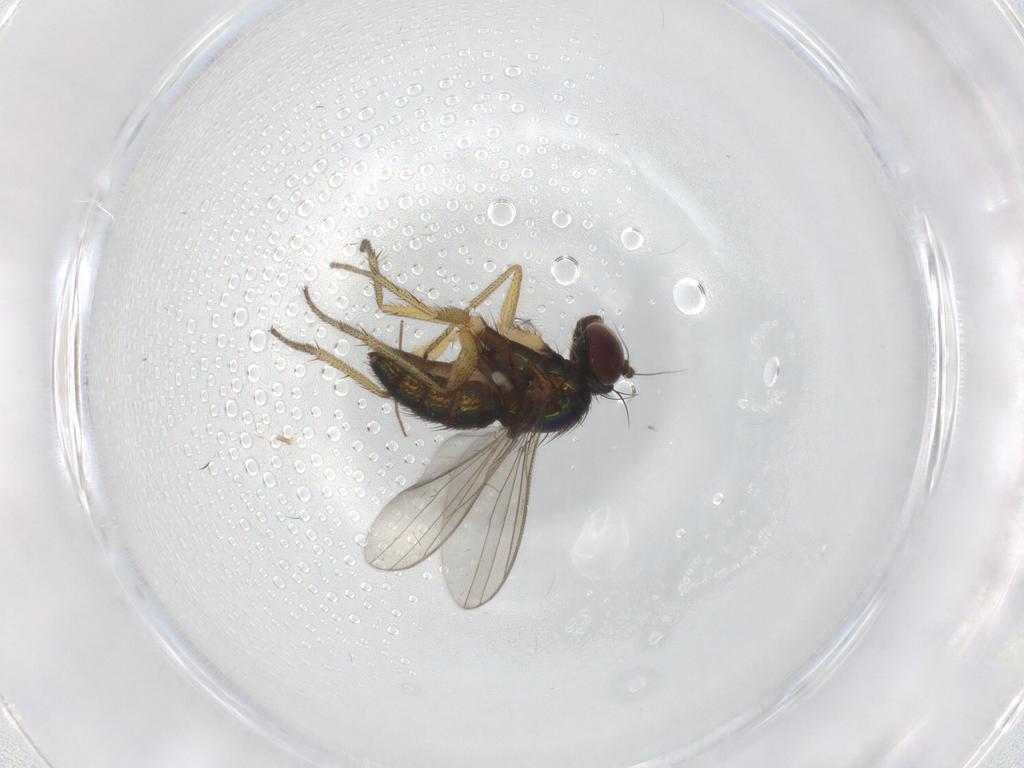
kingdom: Animalia
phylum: Arthropoda
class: Insecta
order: Diptera
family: Dolichopodidae
